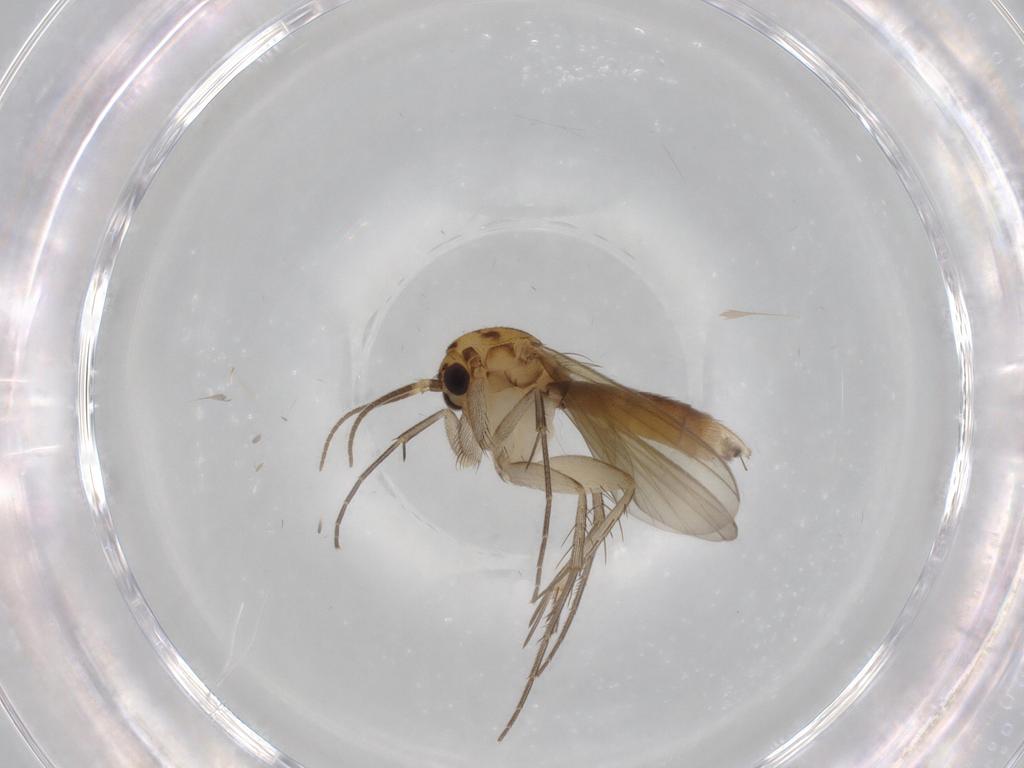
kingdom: Animalia
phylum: Arthropoda
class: Insecta
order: Diptera
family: Mycetophilidae
